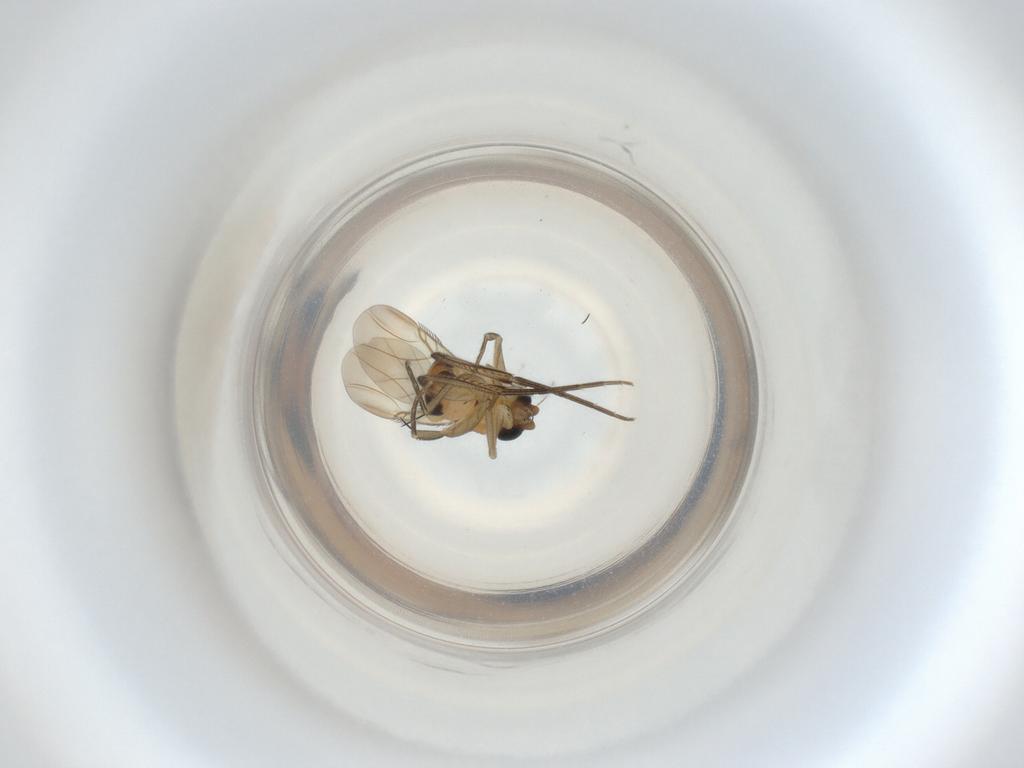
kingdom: Animalia
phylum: Arthropoda
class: Insecta
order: Diptera
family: Phoridae
